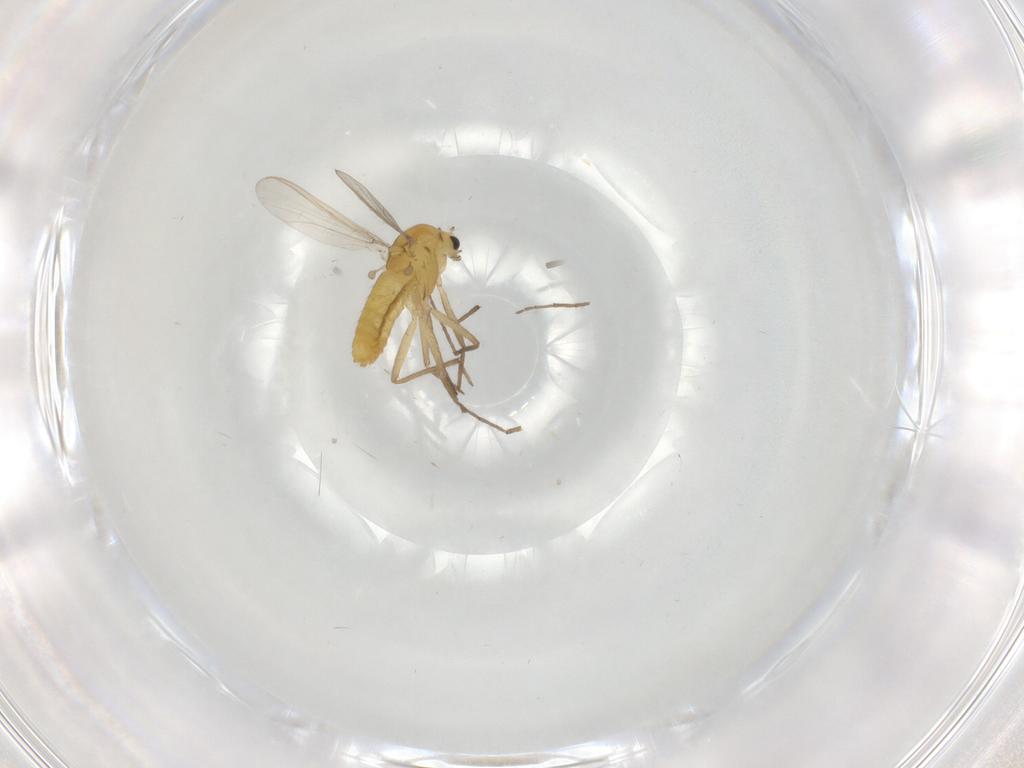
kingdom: Animalia
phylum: Arthropoda
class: Insecta
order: Diptera
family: Chironomidae
